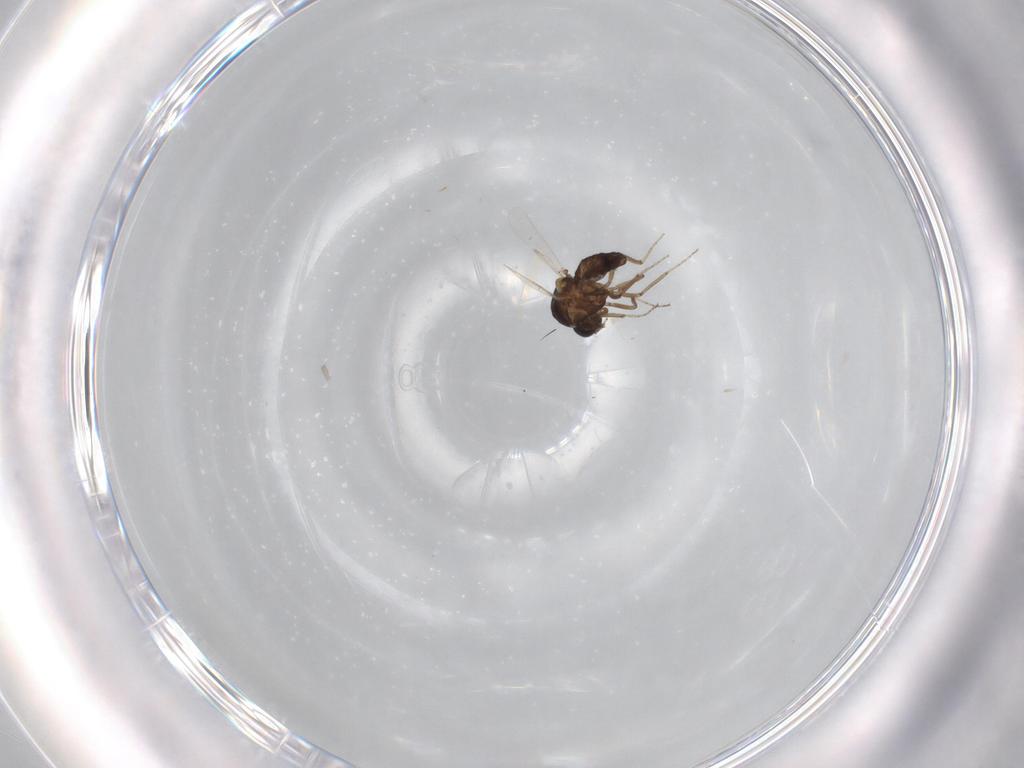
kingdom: Animalia
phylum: Arthropoda
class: Insecta
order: Diptera
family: Ceratopogonidae
